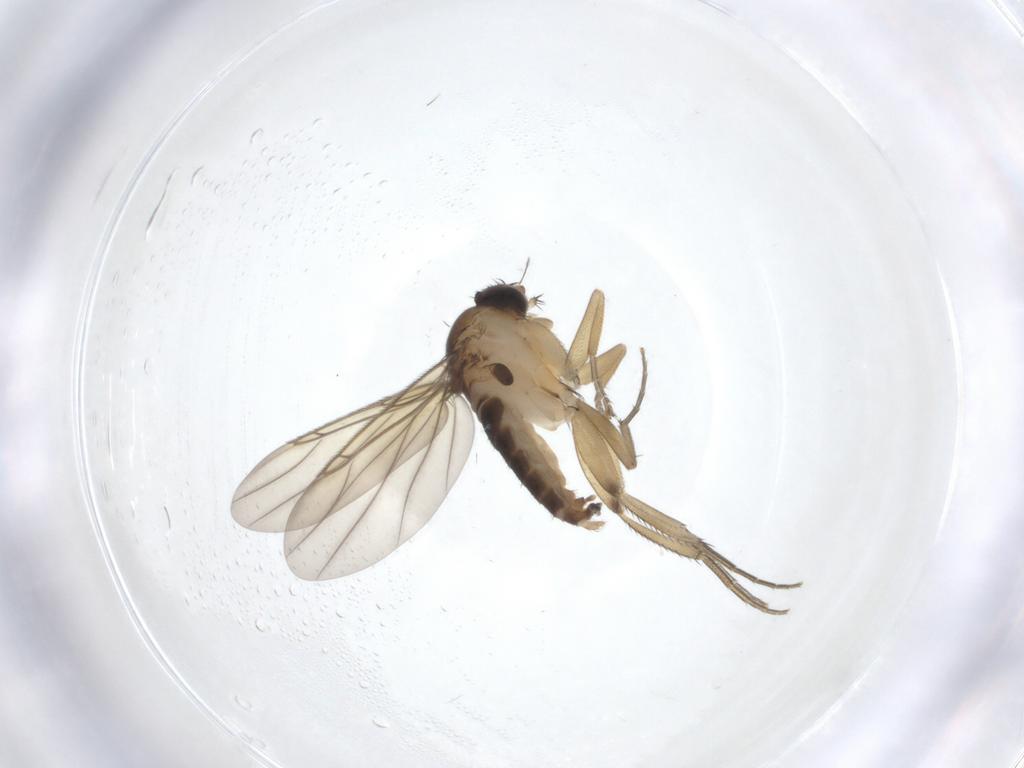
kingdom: Animalia
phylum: Arthropoda
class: Insecta
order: Diptera
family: Phoridae
